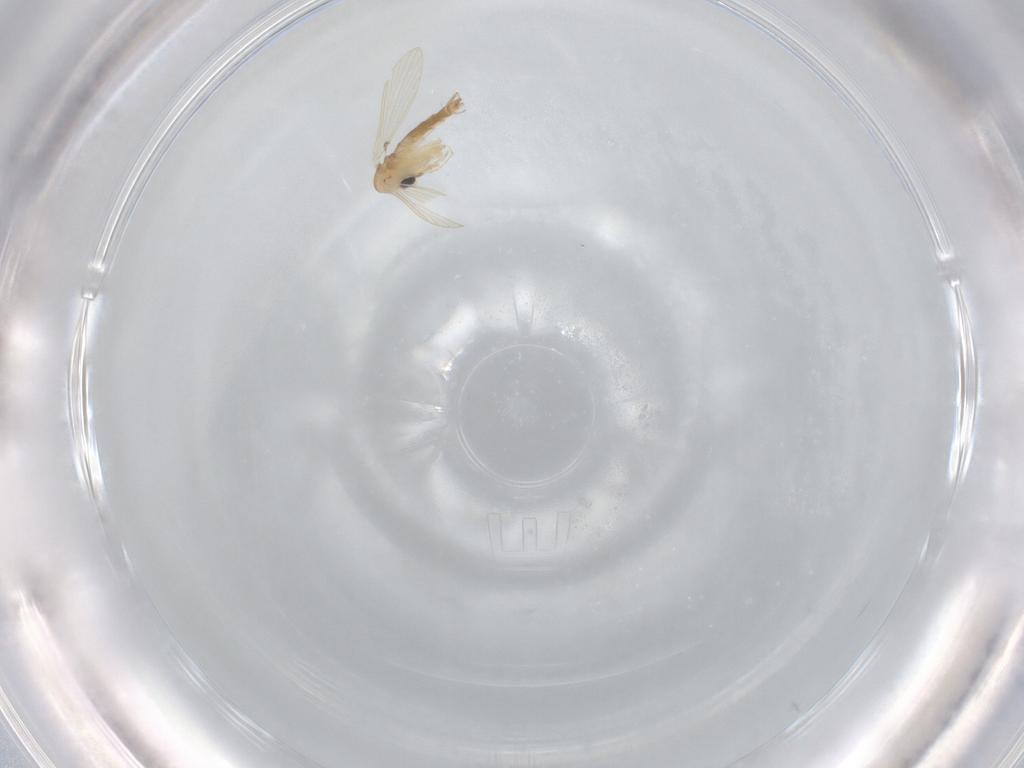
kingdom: Animalia
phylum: Arthropoda
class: Insecta
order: Diptera
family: Psychodidae
